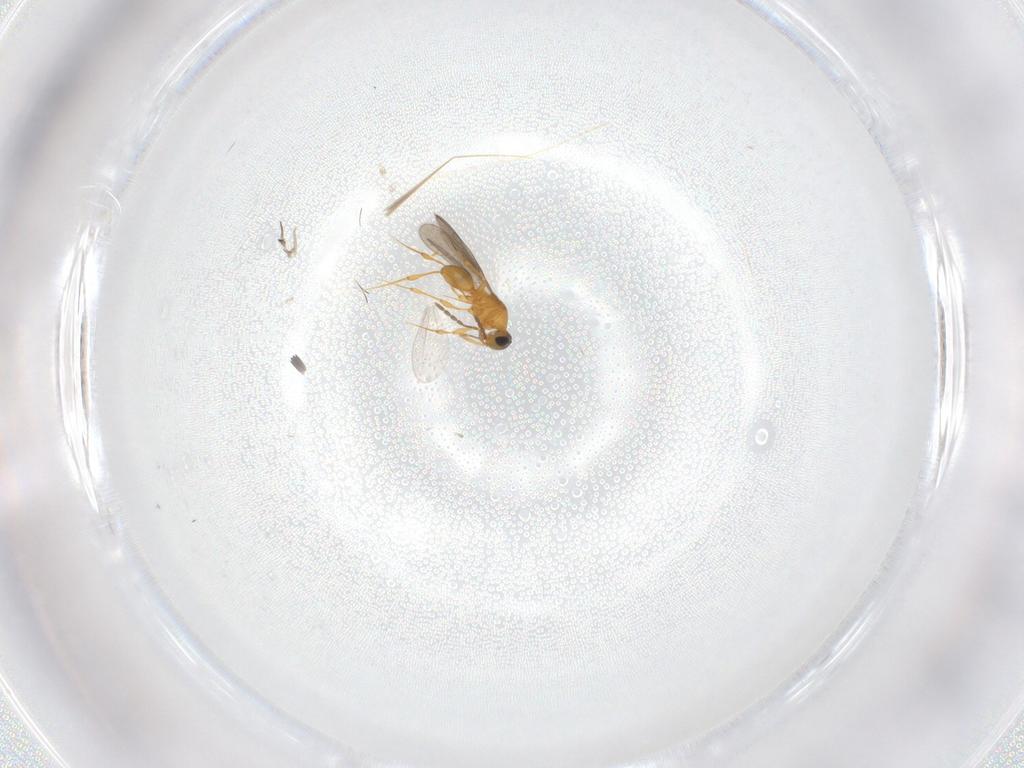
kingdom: Animalia
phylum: Arthropoda
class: Insecta
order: Hymenoptera
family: Platygastridae
